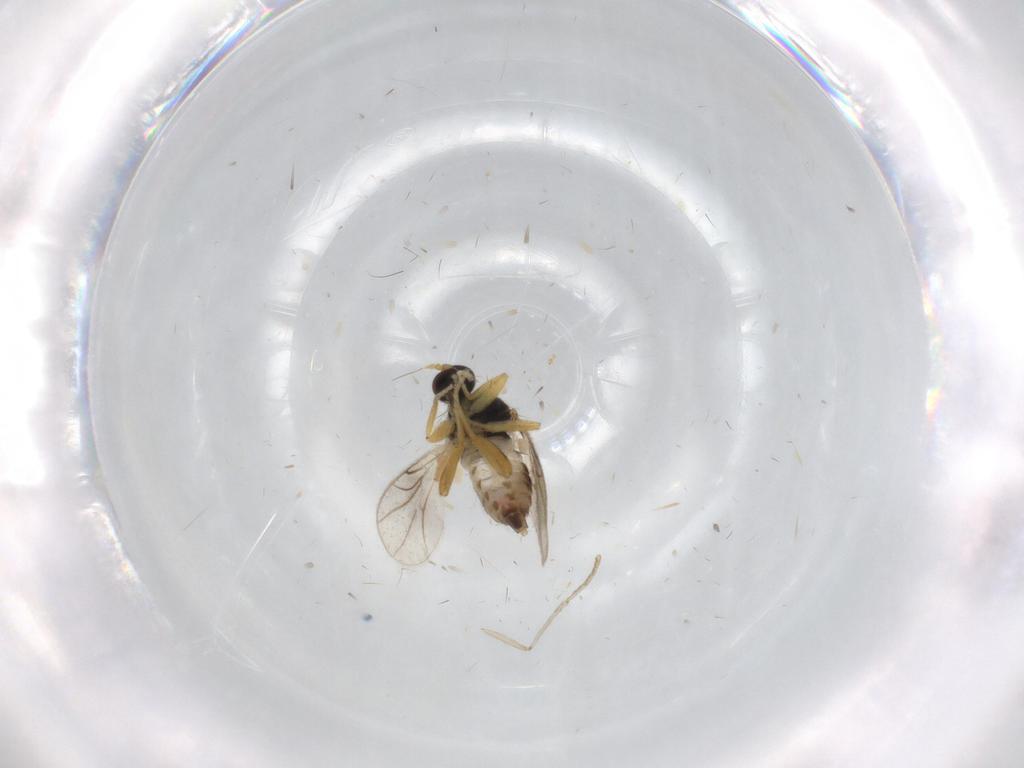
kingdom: Animalia
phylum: Arthropoda
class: Insecta
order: Diptera
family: Hybotidae
